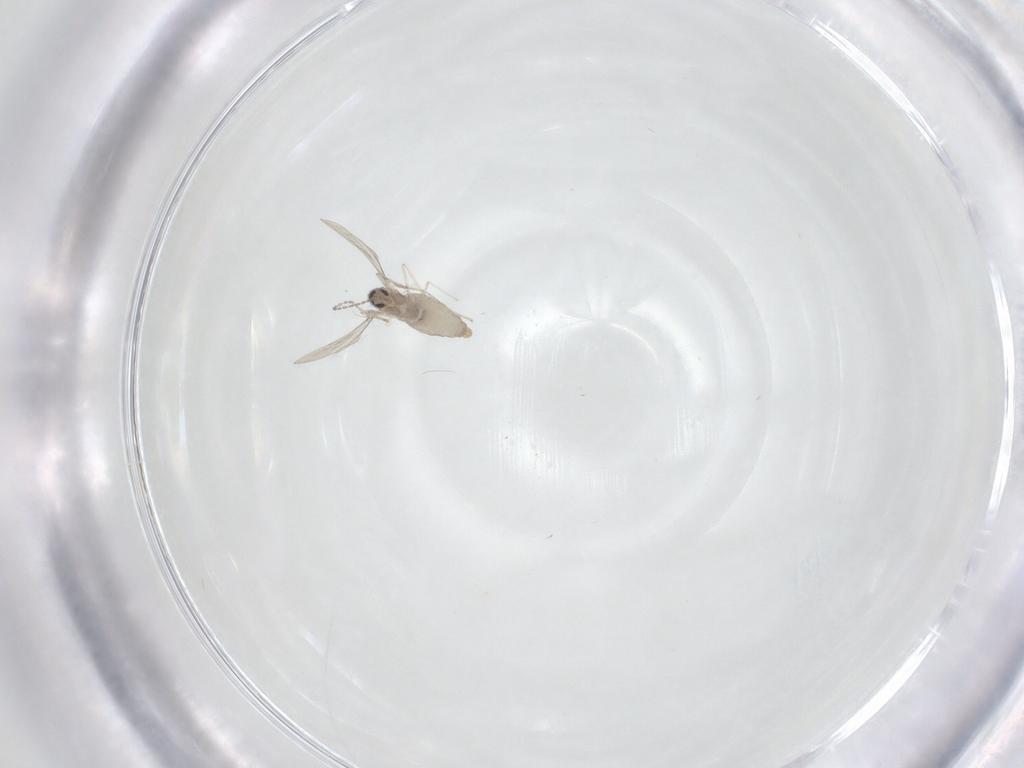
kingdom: Animalia
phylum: Arthropoda
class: Insecta
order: Diptera
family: Cecidomyiidae
